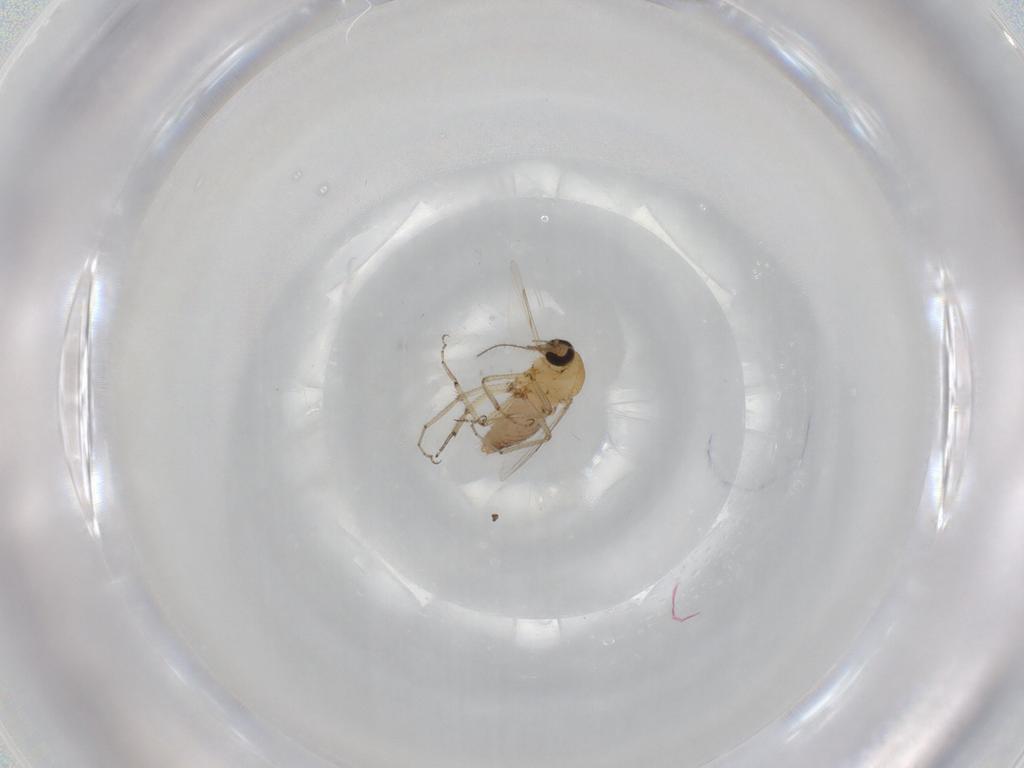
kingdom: Animalia
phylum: Arthropoda
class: Insecta
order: Diptera
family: Ceratopogonidae
